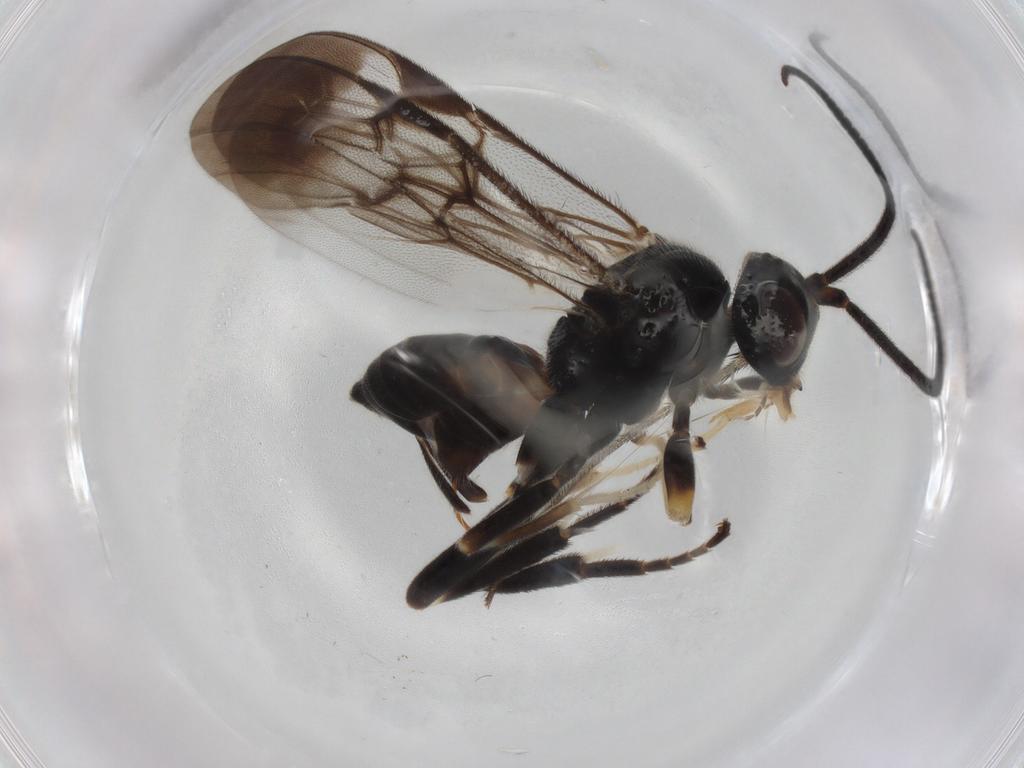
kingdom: Animalia
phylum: Arthropoda
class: Insecta
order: Hymenoptera
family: Braconidae
